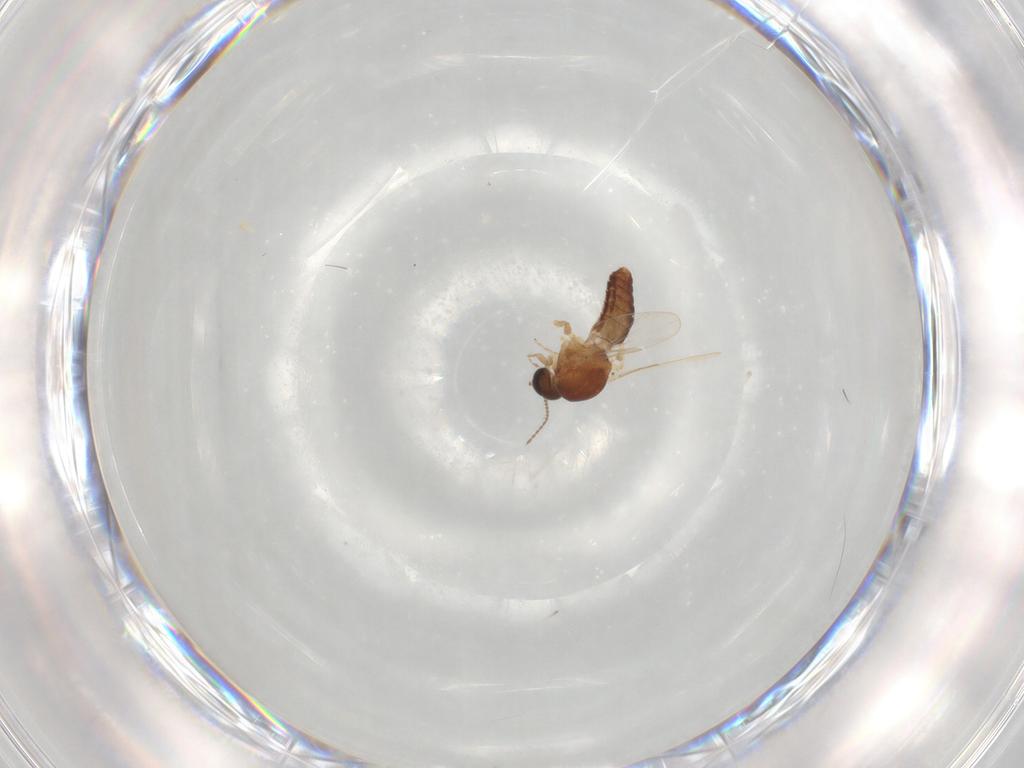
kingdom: Animalia
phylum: Arthropoda
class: Insecta
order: Diptera
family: Ceratopogonidae
